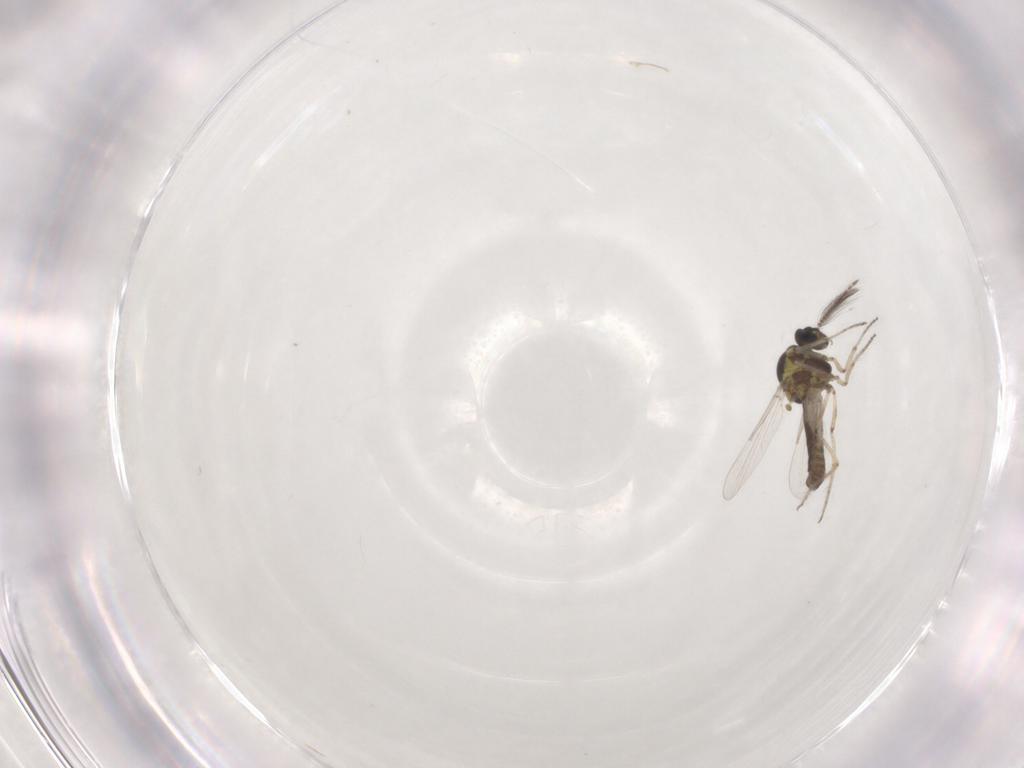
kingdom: Animalia
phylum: Arthropoda
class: Insecta
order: Diptera
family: Ceratopogonidae
